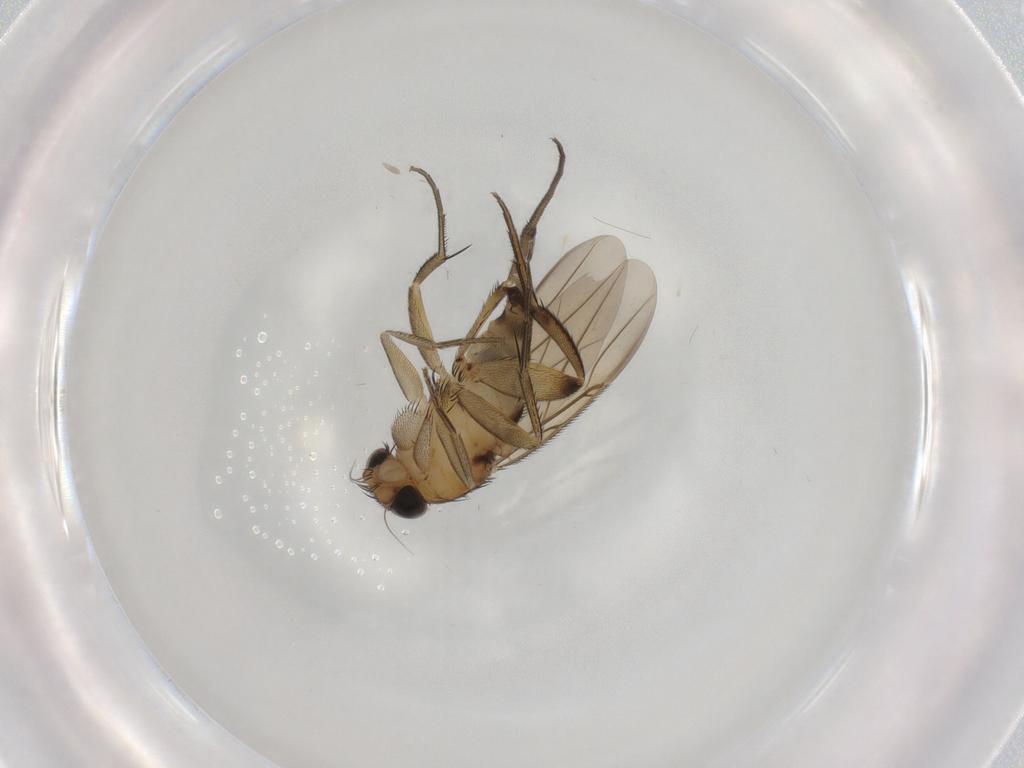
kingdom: Animalia
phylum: Arthropoda
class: Insecta
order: Diptera
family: Phoridae
